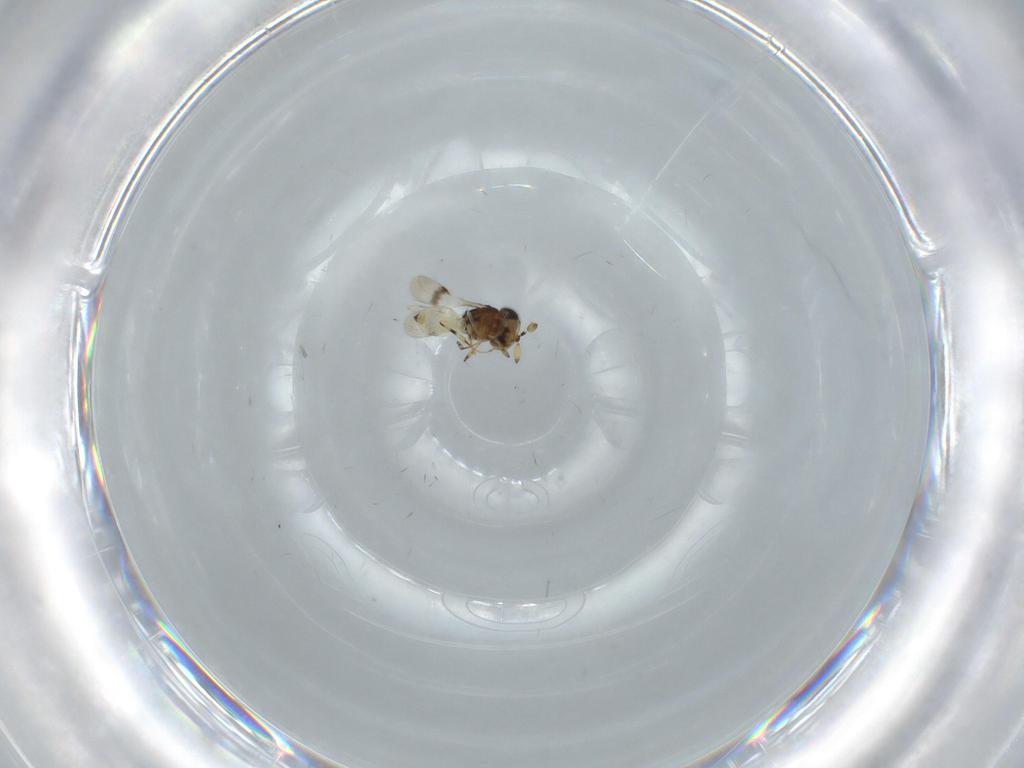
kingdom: Animalia
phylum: Arthropoda
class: Insecta
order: Hymenoptera
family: Scelionidae
